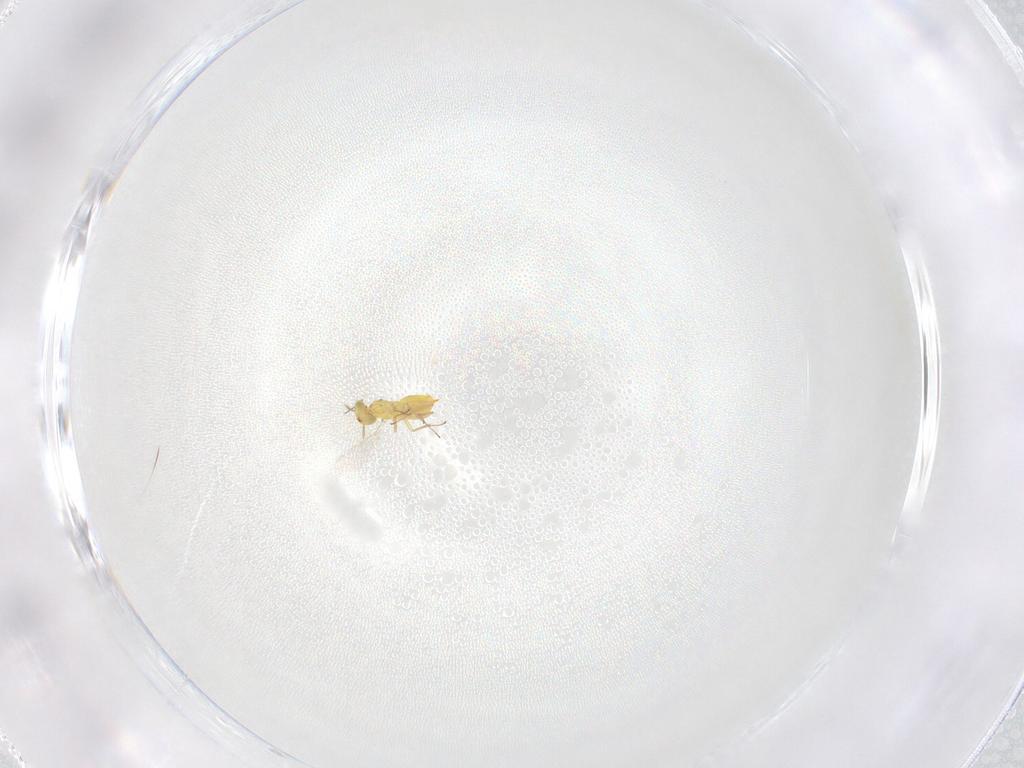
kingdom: Animalia
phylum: Arthropoda
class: Insecta
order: Hymenoptera
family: Aphelinidae
